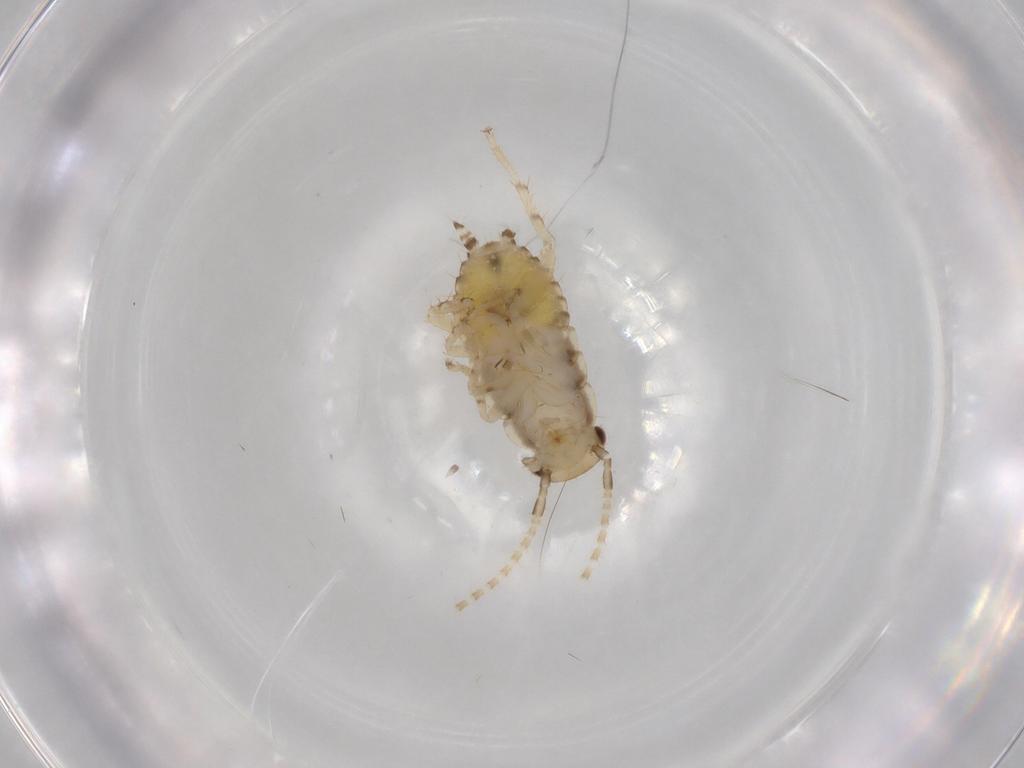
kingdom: Animalia
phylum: Arthropoda
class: Insecta
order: Blattodea
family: Ectobiidae
